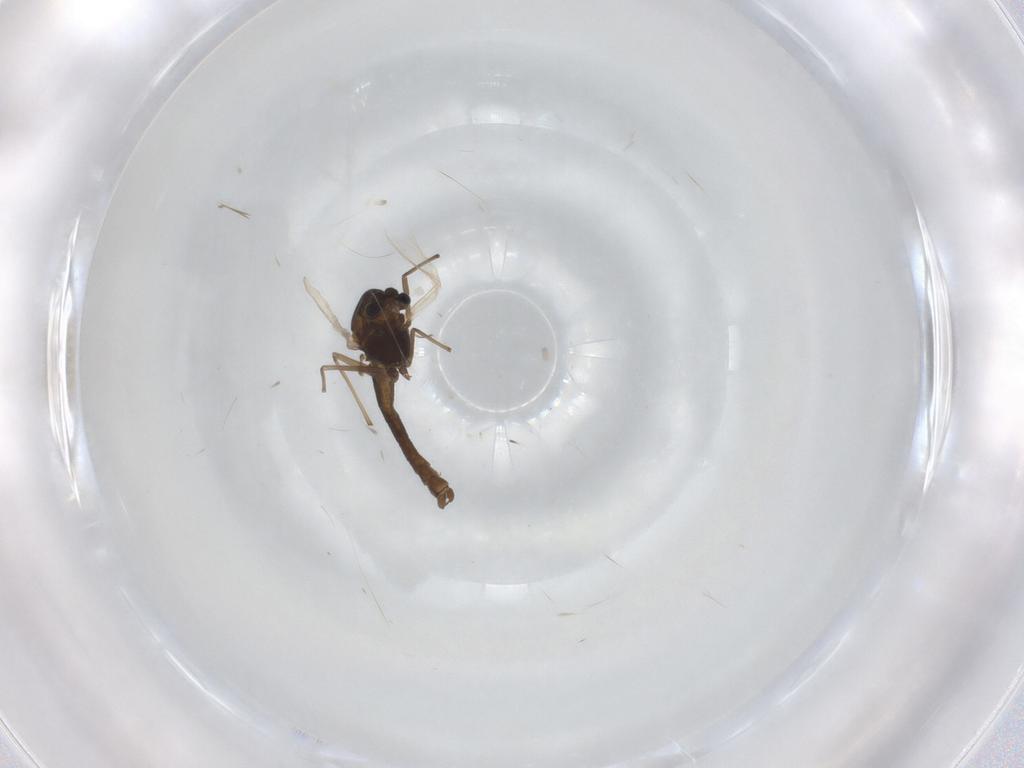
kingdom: Animalia
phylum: Arthropoda
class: Insecta
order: Diptera
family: Chironomidae
